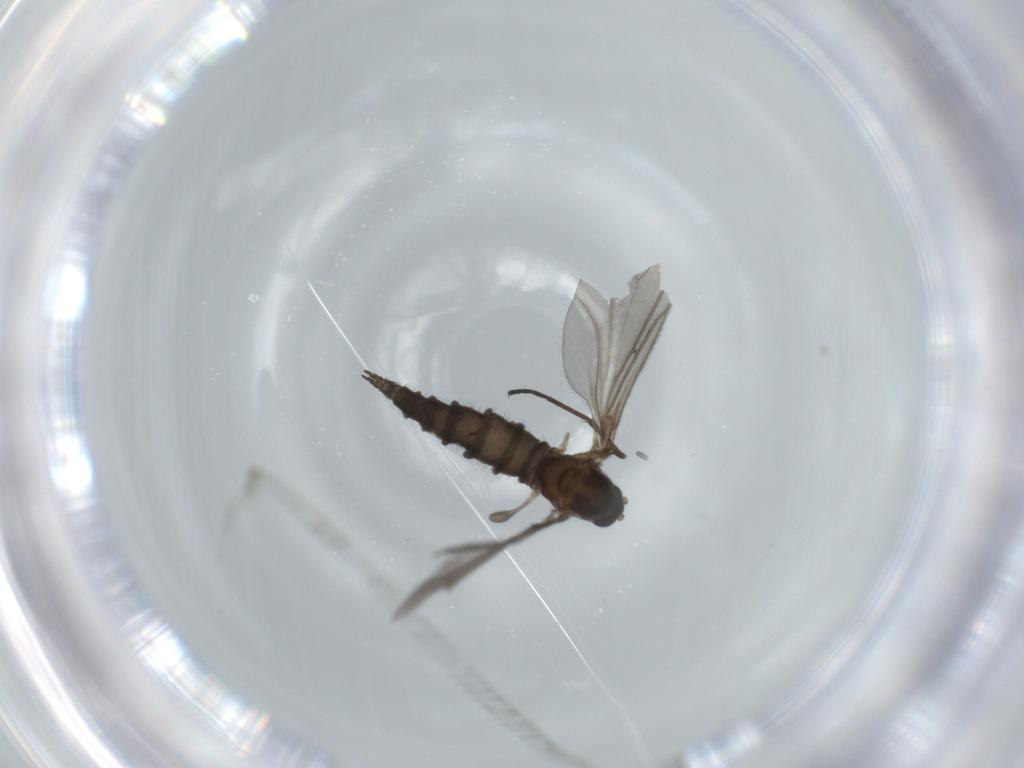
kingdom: Animalia
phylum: Arthropoda
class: Insecta
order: Diptera
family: Sciaridae
